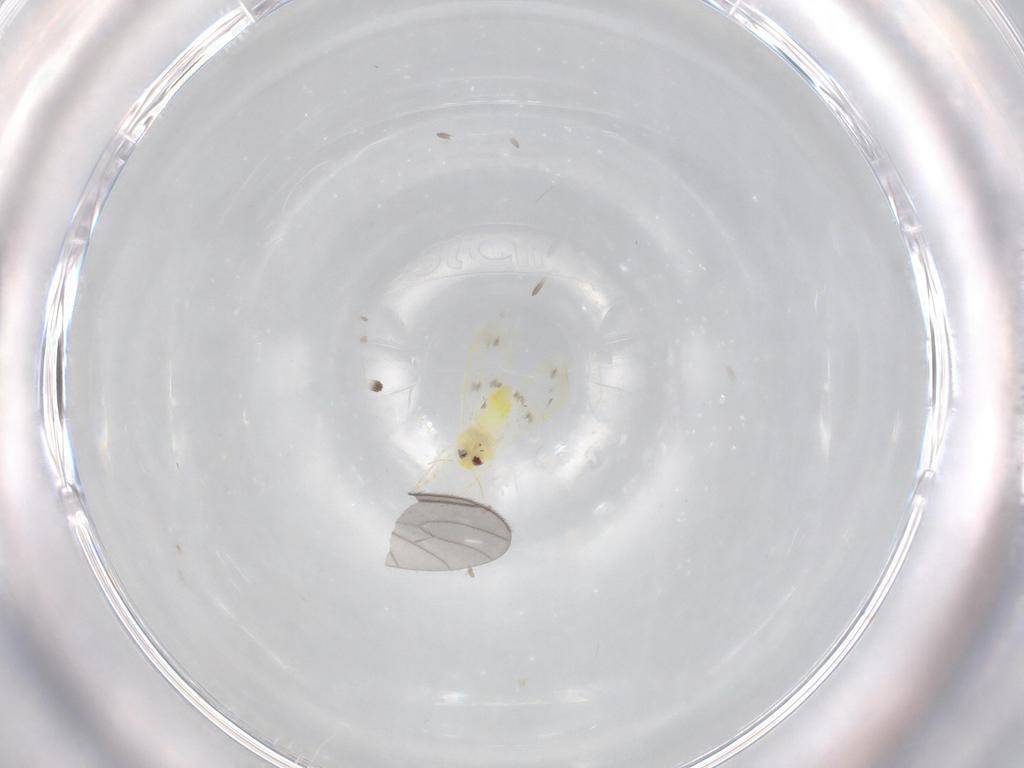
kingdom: Animalia
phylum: Arthropoda
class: Insecta
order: Hemiptera
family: Aleyrodidae
